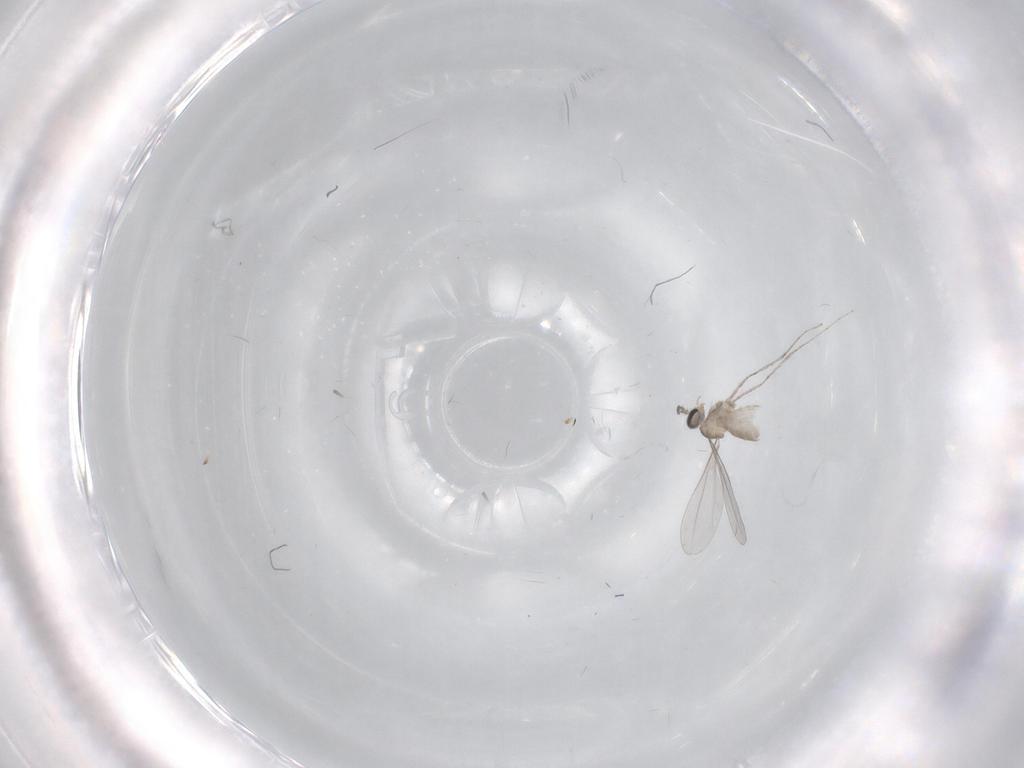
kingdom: Animalia
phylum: Arthropoda
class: Insecta
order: Diptera
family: Cecidomyiidae
